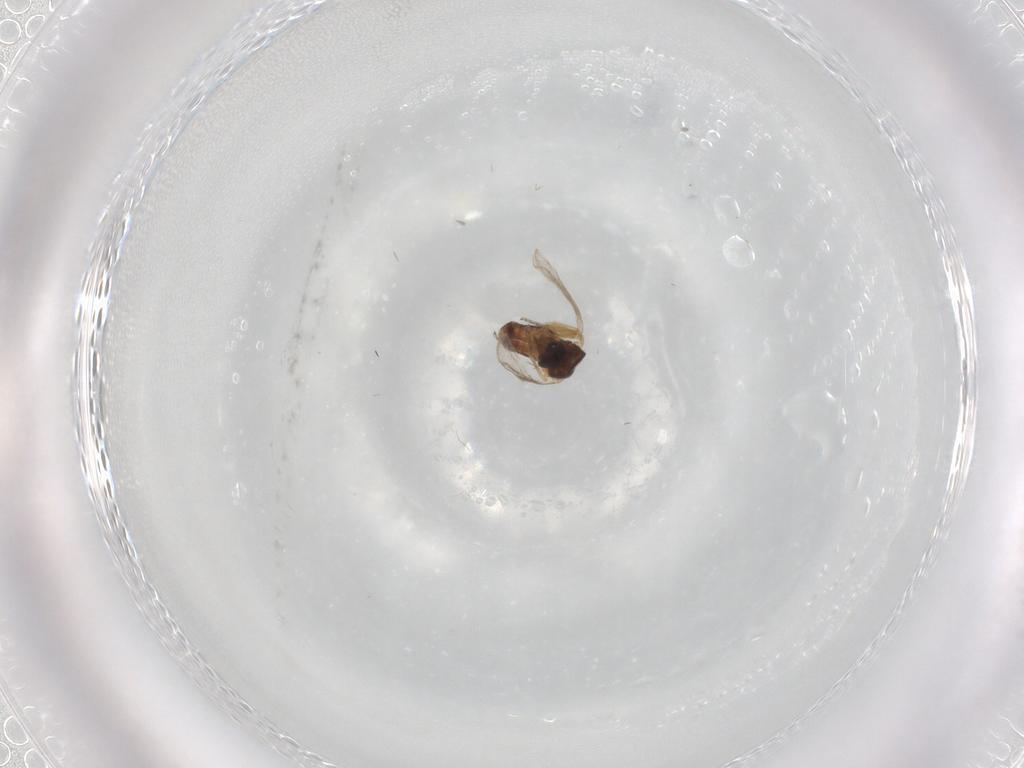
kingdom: Animalia
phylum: Arthropoda
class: Insecta
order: Diptera
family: Ceratopogonidae
